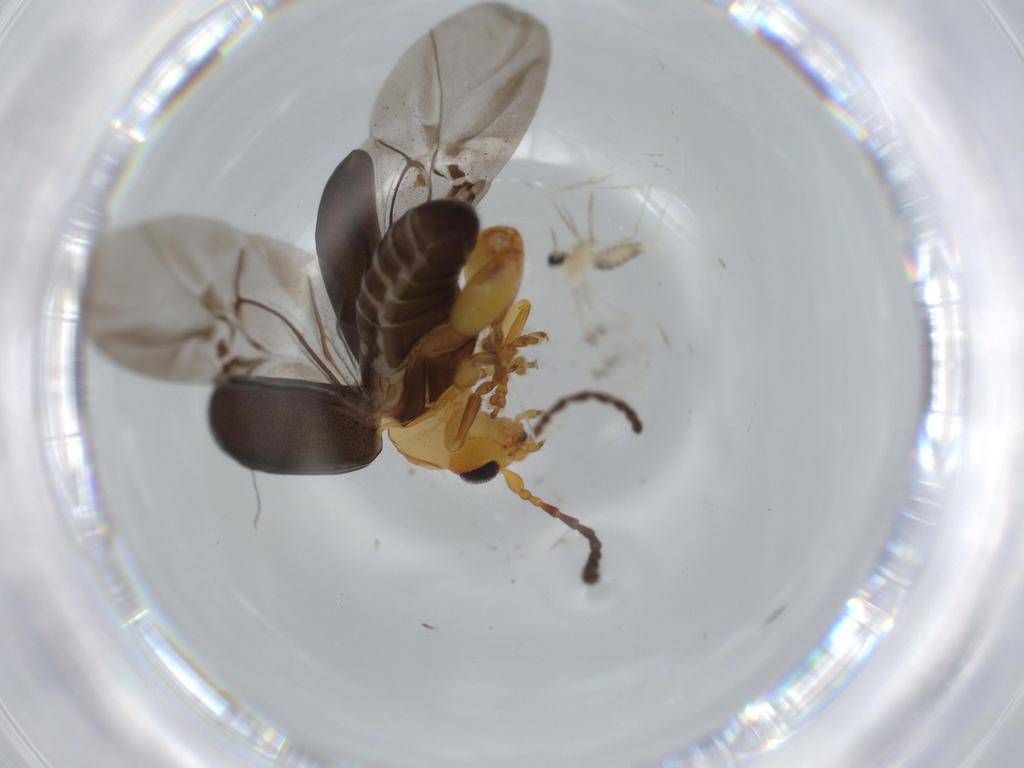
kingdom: Animalia
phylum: Arthropoda
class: Insecta
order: Coleoptera
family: Chrysomelidae
